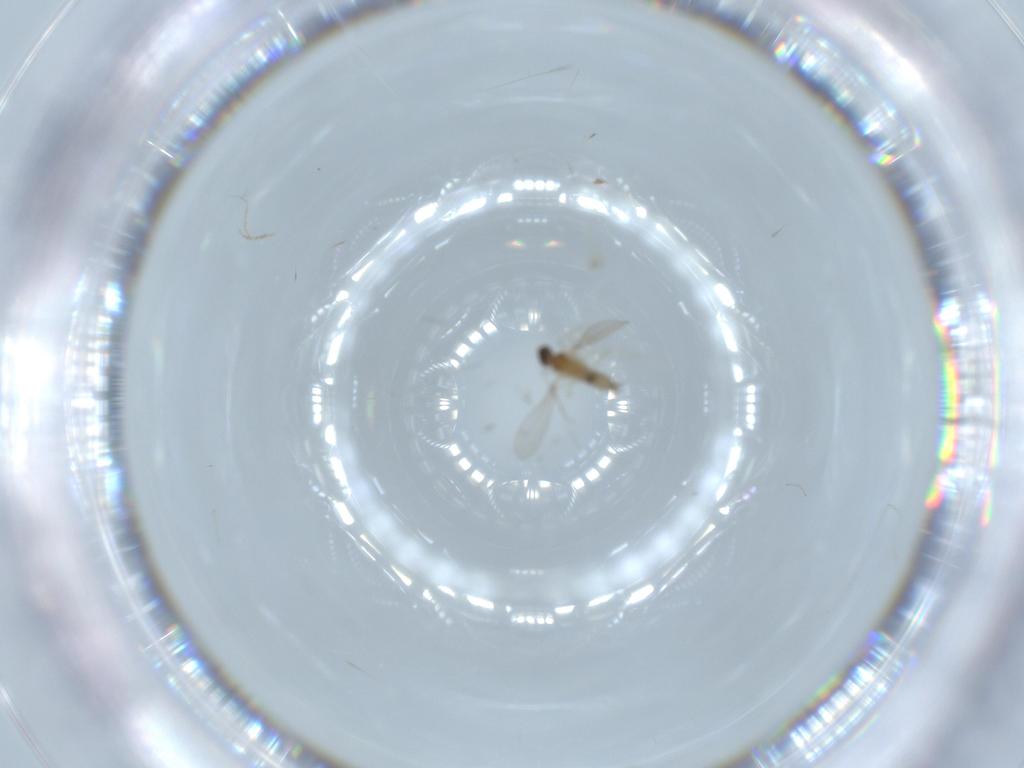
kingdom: Animalia
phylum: Arthropoda
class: Insecta
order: Diptera
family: Cecidomyiidae
